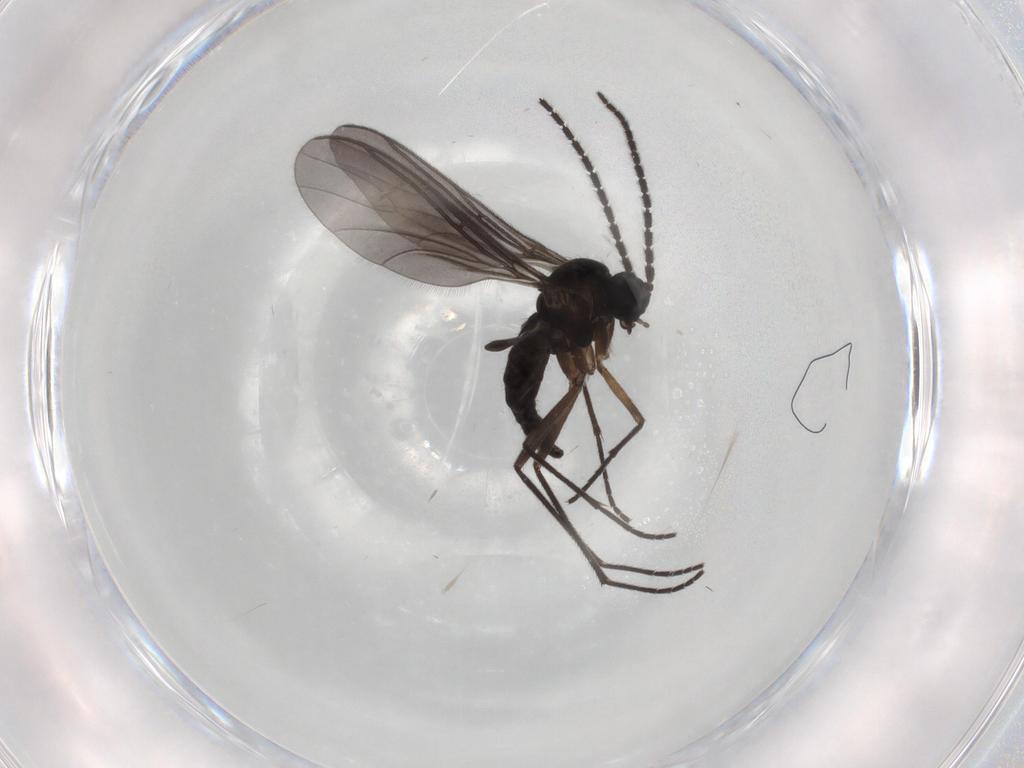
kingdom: Animalia
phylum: Arthropoda
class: Insecta
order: Diptera
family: Sciaridae
